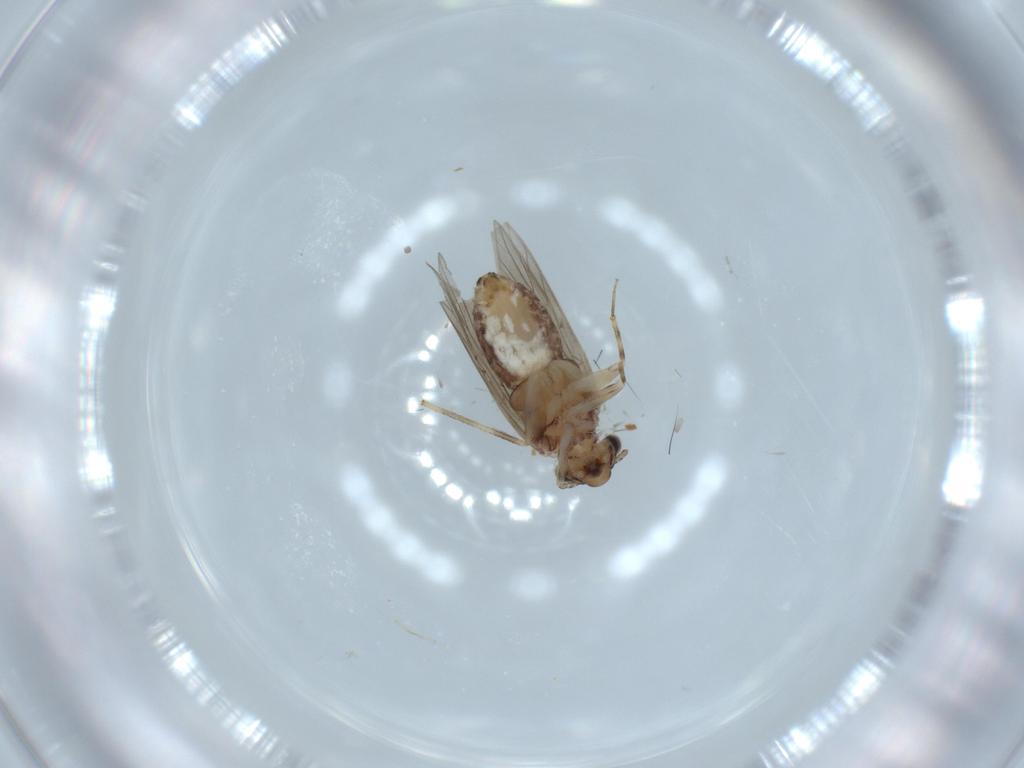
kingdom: Animalia
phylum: Arthropoda
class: Insecta
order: Psocodea
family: Lepidopsocidae
